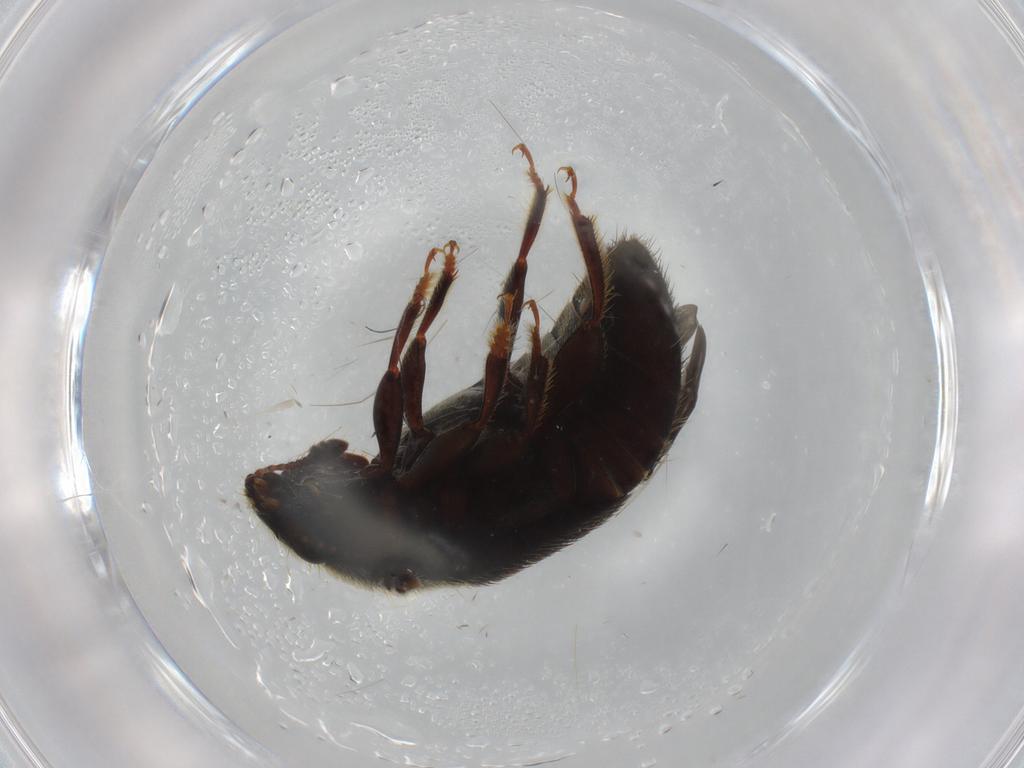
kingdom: Animalia
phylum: Arthropoda
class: Insecta
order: Coleoptera
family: Nitidulidae
